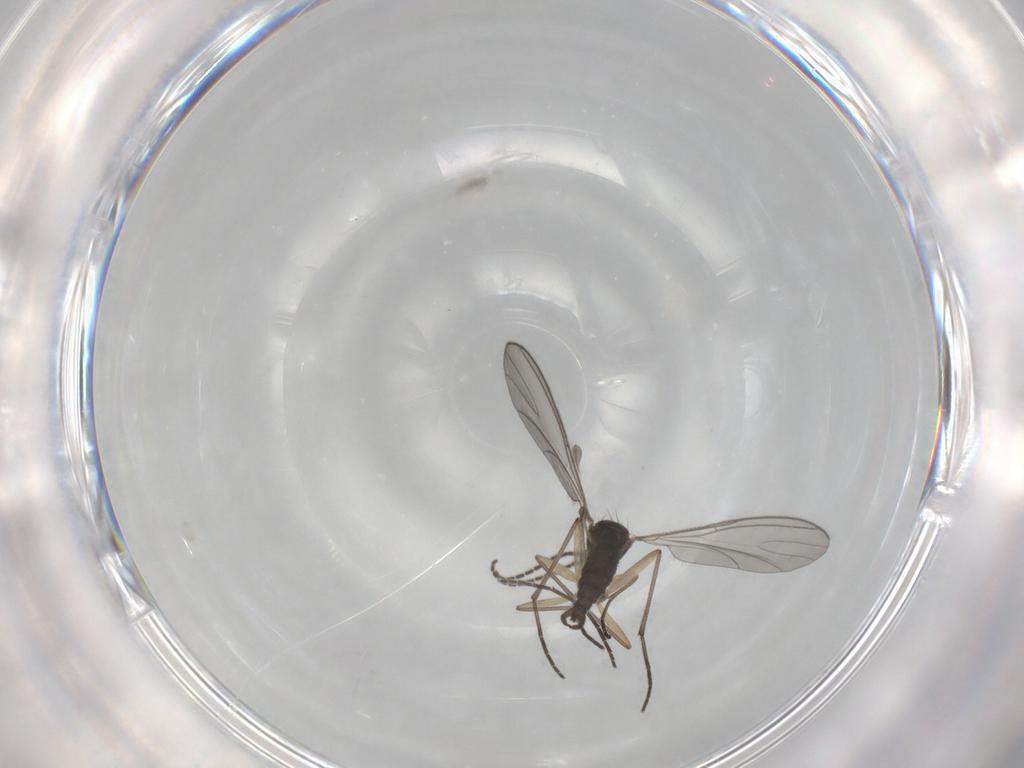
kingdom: Animalia
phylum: Arthropoda
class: Insecta
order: Diptera
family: Sciaridae
